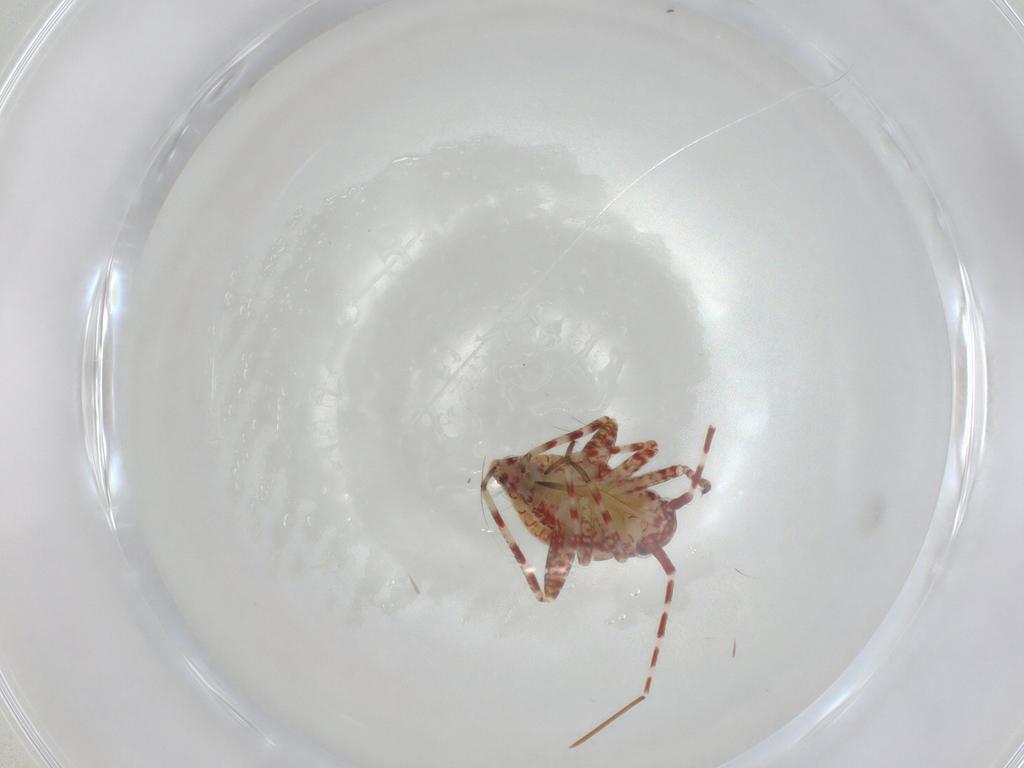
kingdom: Animalia
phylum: Arthropoda
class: Insecta
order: Hemiptera
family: Miridae
